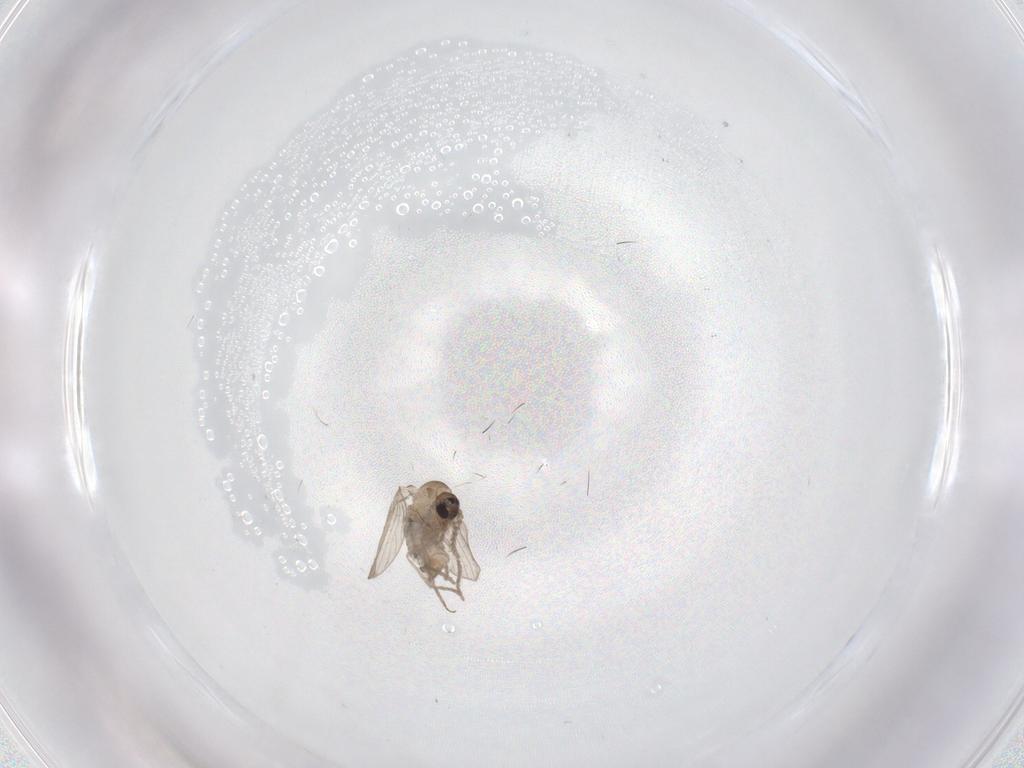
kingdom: Animalia
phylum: Arthropoda
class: Insecta
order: Diptera
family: Psychodidae
